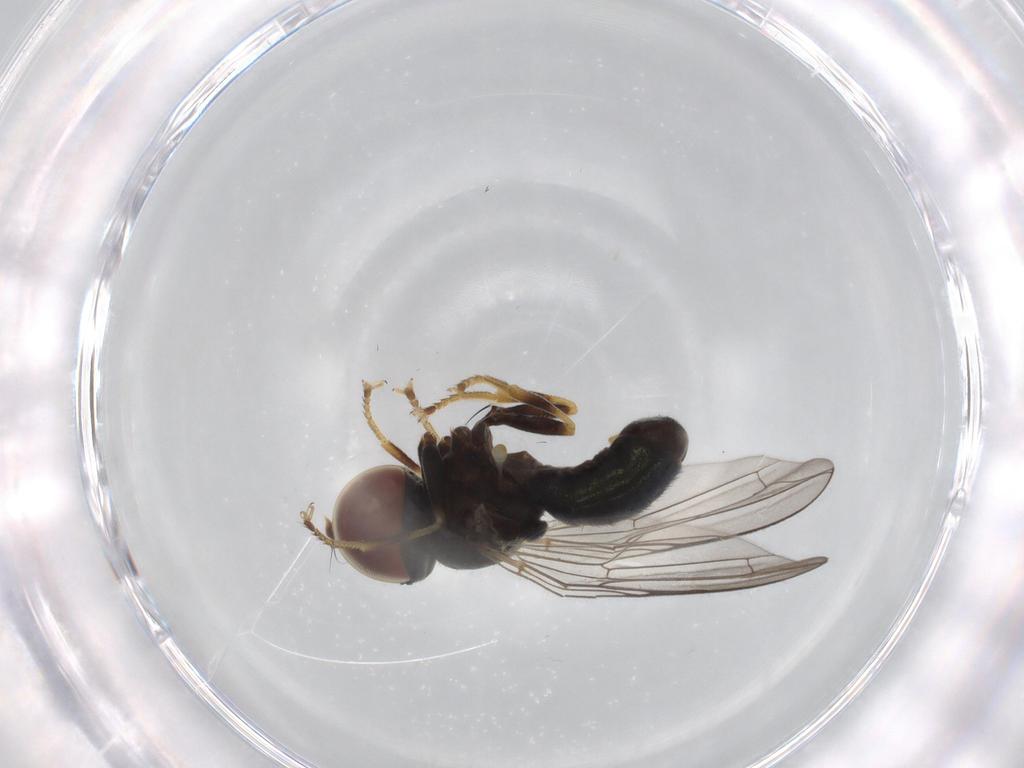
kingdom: Animalia
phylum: Arthropoda
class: Insecta
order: Diptera
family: Pipunculidae
